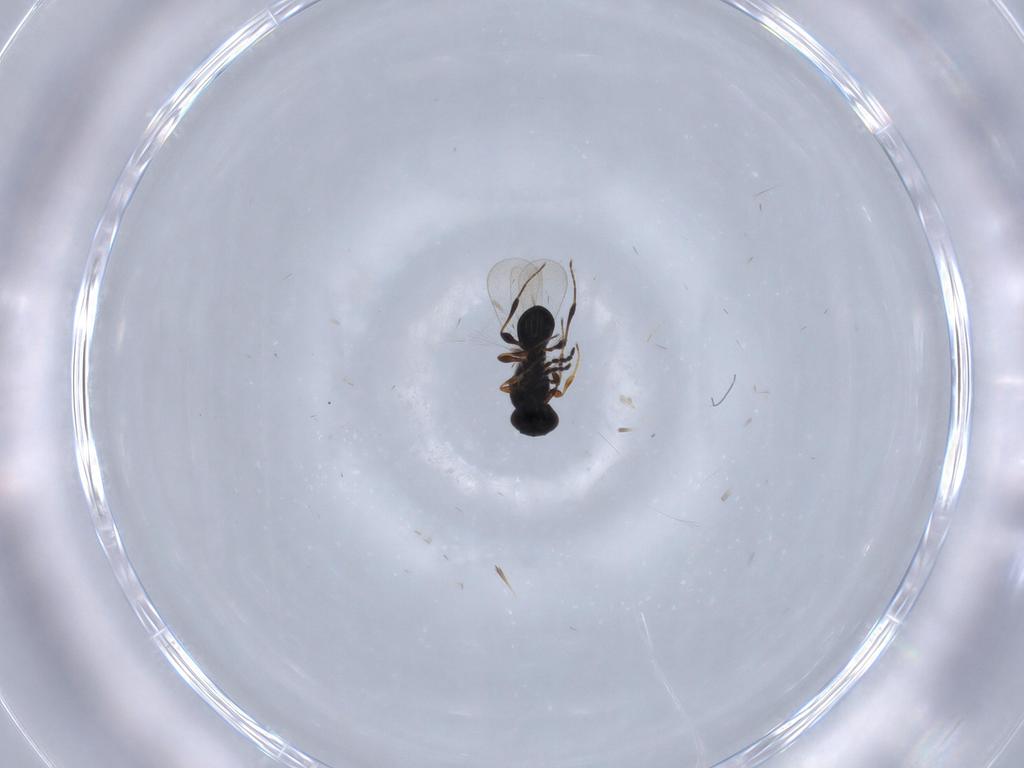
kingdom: Animalia
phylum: Arthropoda
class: Insecta
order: Hymenoptera
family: Platygastridae
